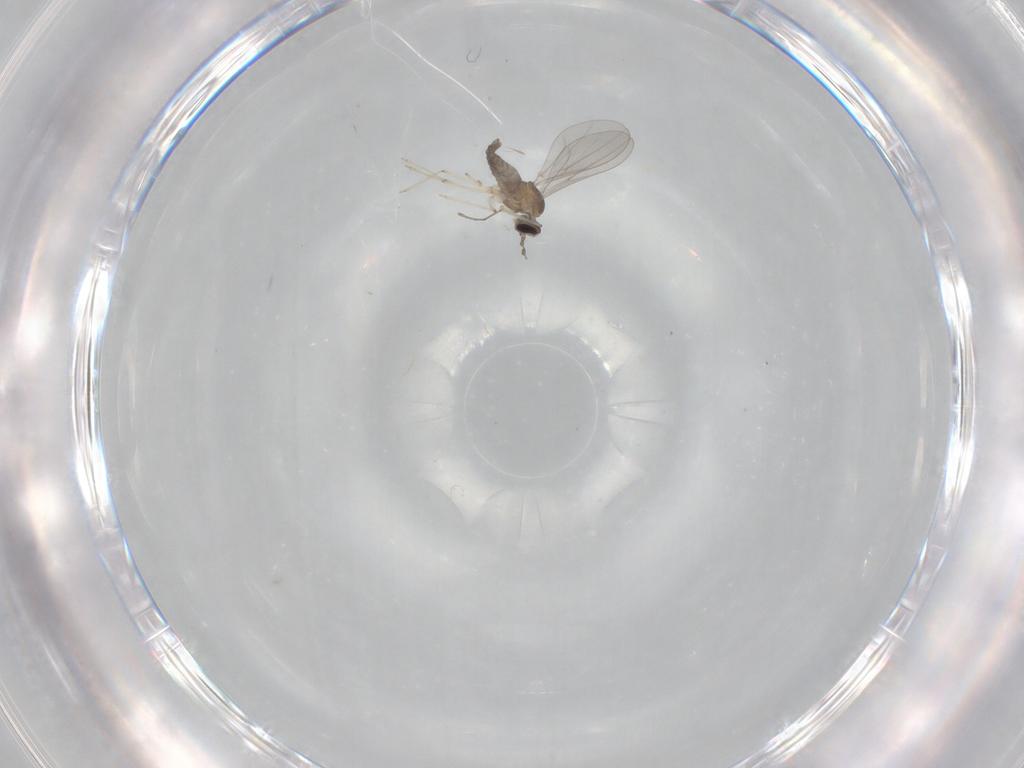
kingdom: Animalia
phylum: Arthropoda
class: Insecta
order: Diptera
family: Cecidomyiidae
